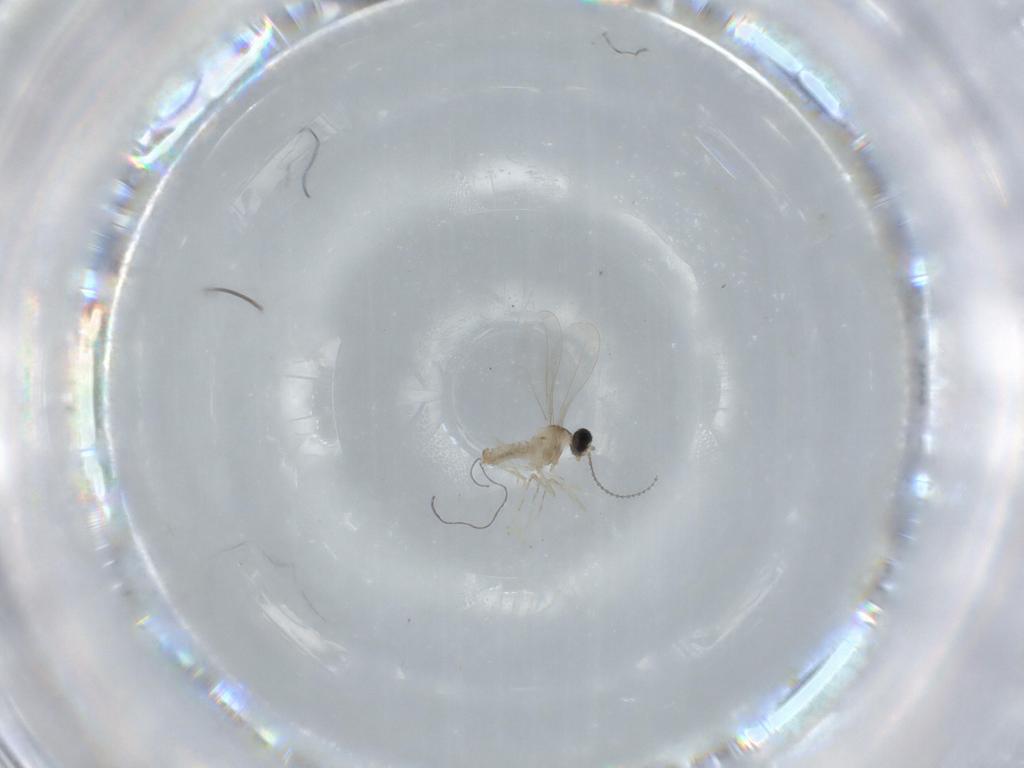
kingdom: Animalia
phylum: Arthropoda
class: Insecta
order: Diptera
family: Cecidomyiidae
